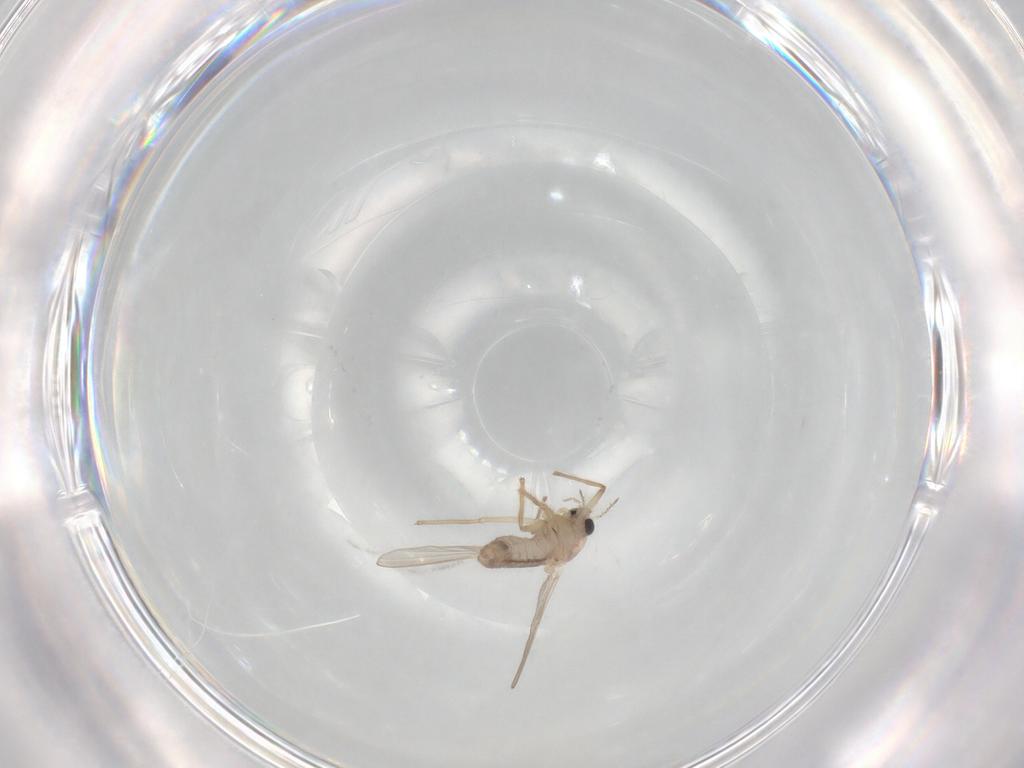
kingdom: Animalia
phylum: Arthropoda
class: Insecta
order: Diptera
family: Chironomidae
